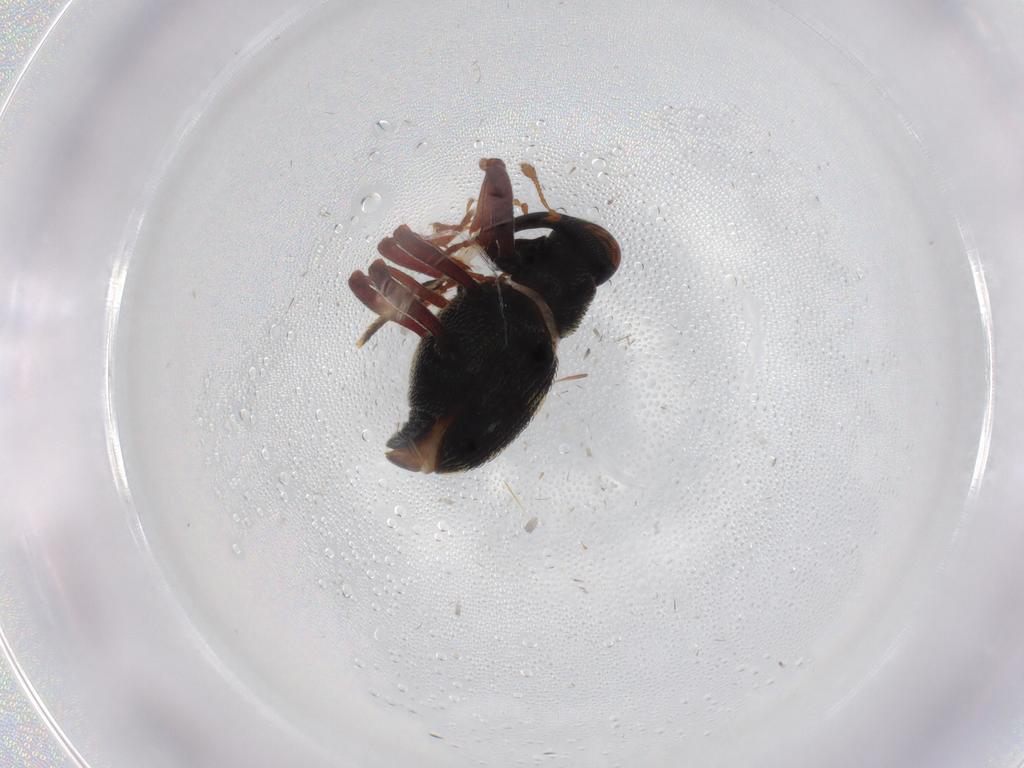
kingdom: Animalia
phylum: Arthropoda
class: Insecta
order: Coleoptera
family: Curculionidae
